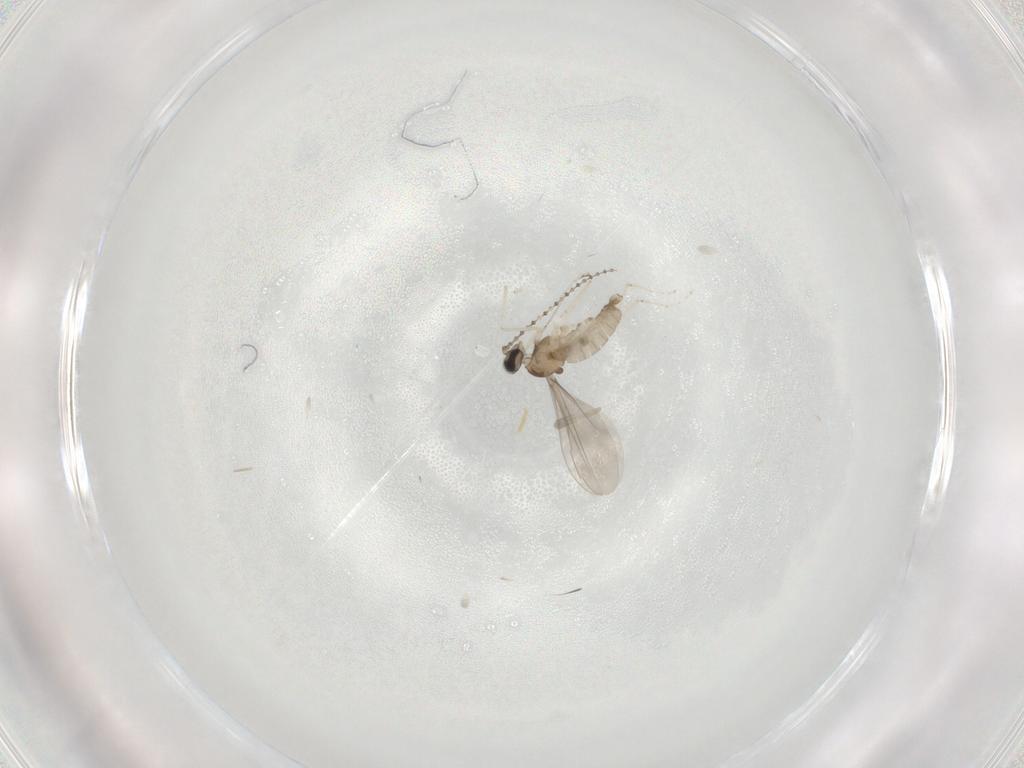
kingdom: Animalia
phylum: Arthropoda
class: Insecta
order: Diptera
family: Cecidomyiidae
